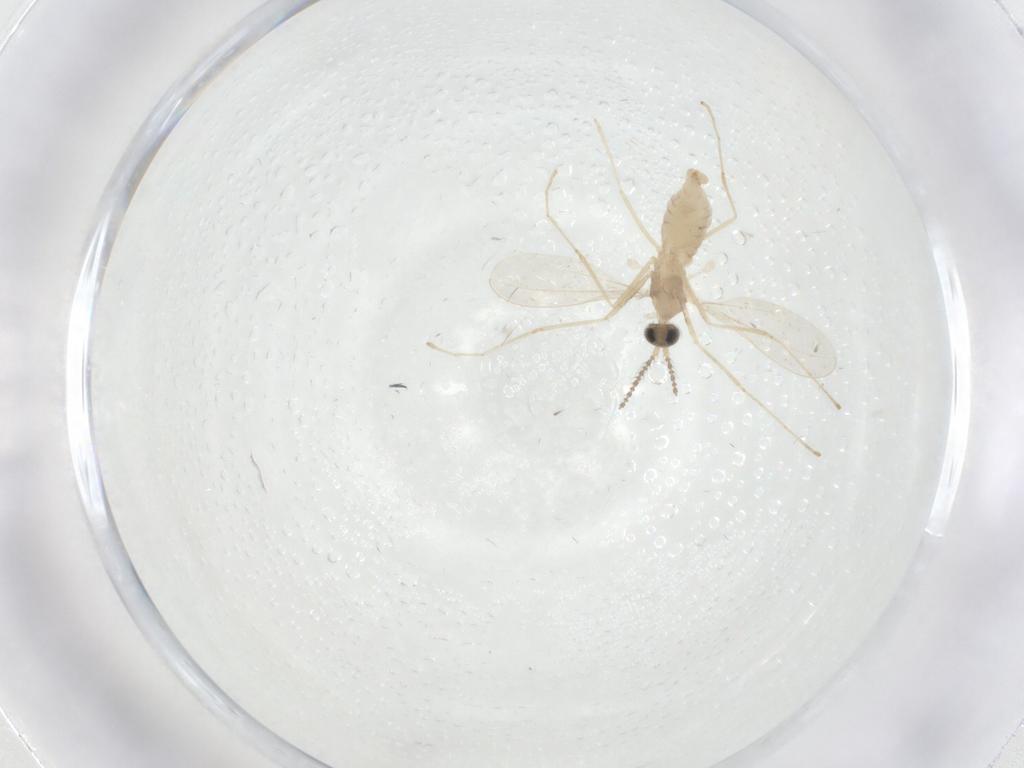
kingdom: Animalia
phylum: Arthropoda
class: Insecta
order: Diptera
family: Cecidomyiidae
